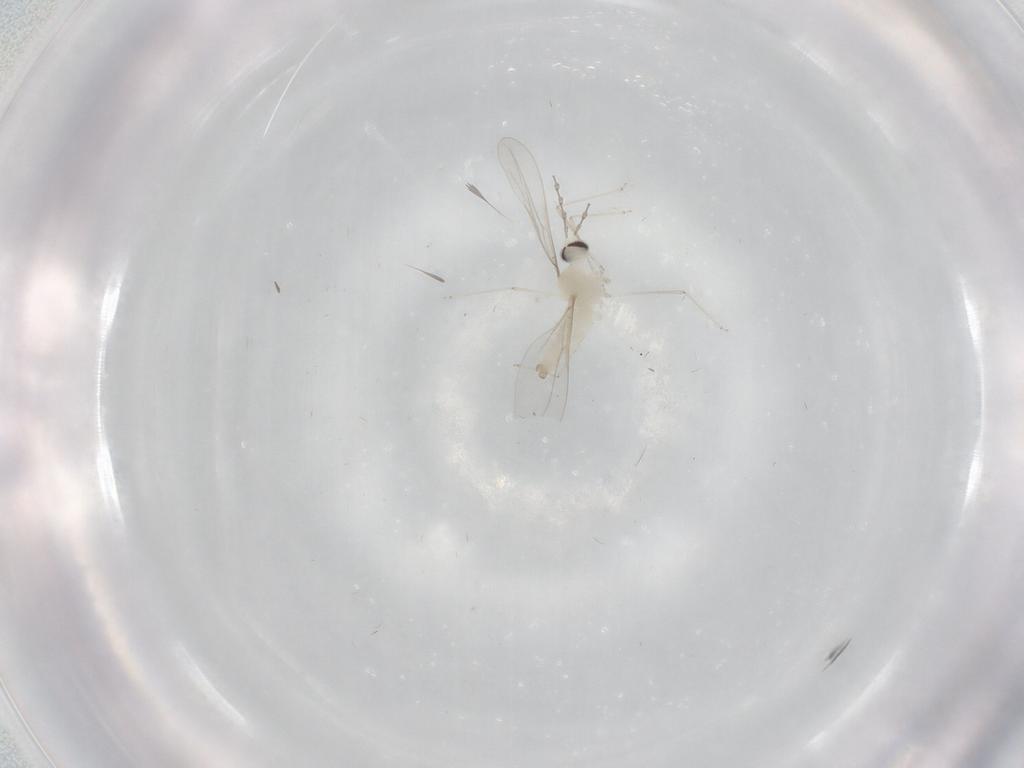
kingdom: Animalia
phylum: Arthropoda
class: Insecta
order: Diptera
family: Cecidomyiidae
